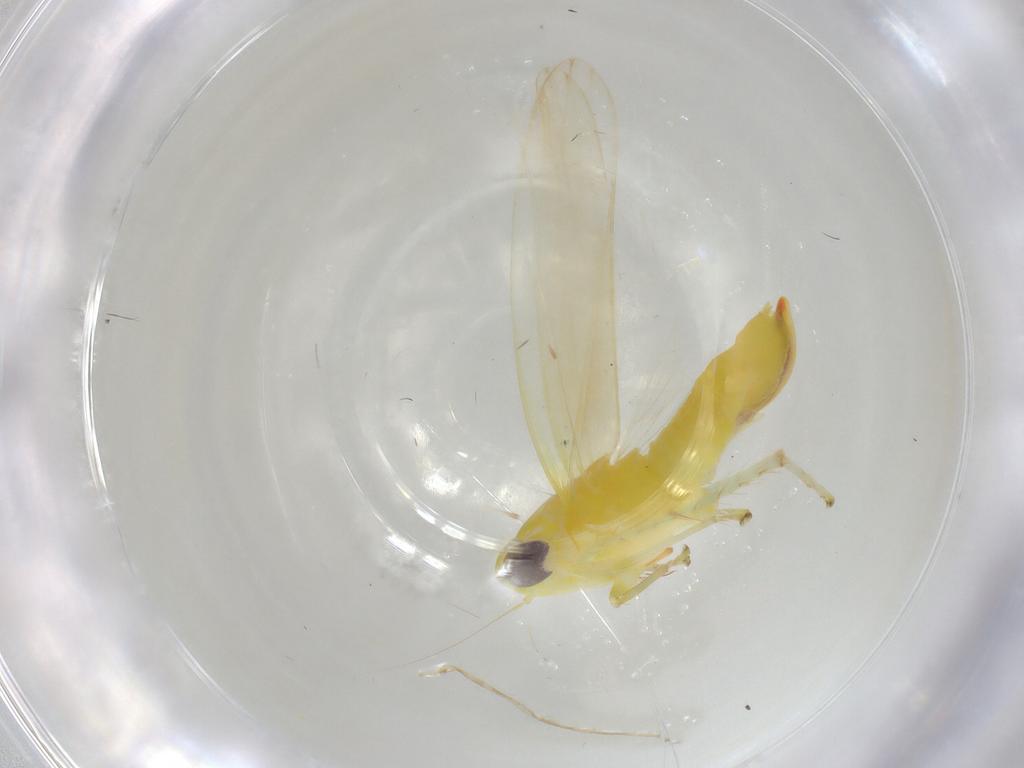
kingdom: Animalia
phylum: Arthropoda
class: Insecta
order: Hemiptera
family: Cicadellidae
